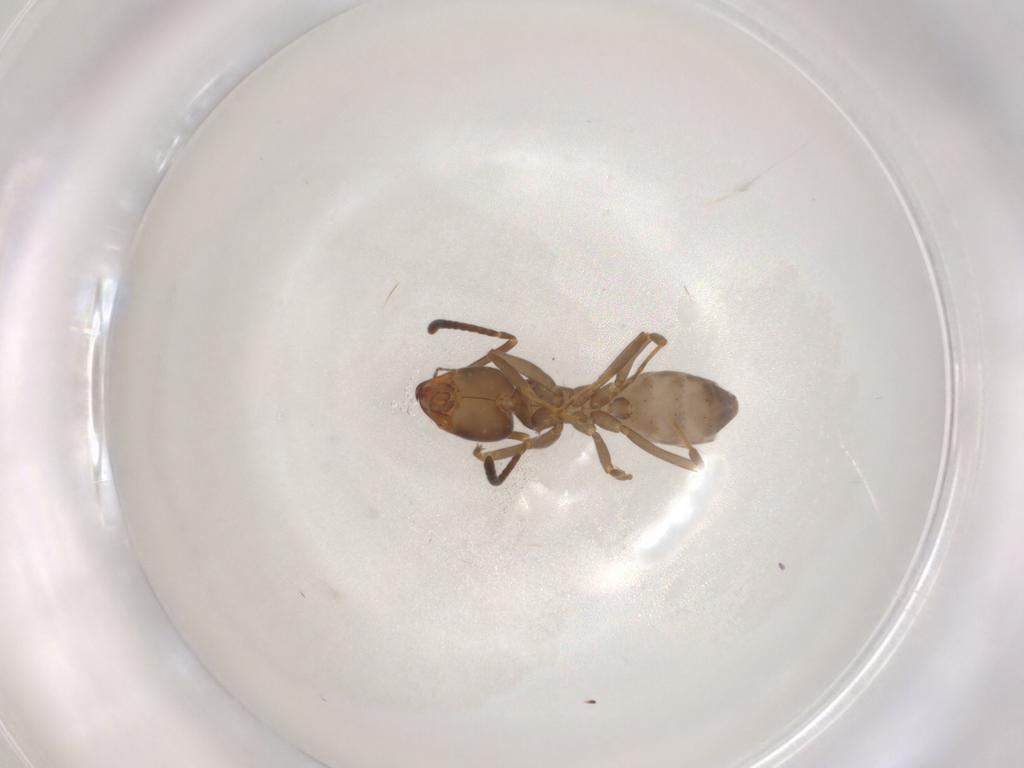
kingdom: Animalia
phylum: Arthropoda
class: Insecta
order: Hymenoptera
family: Formicidae
